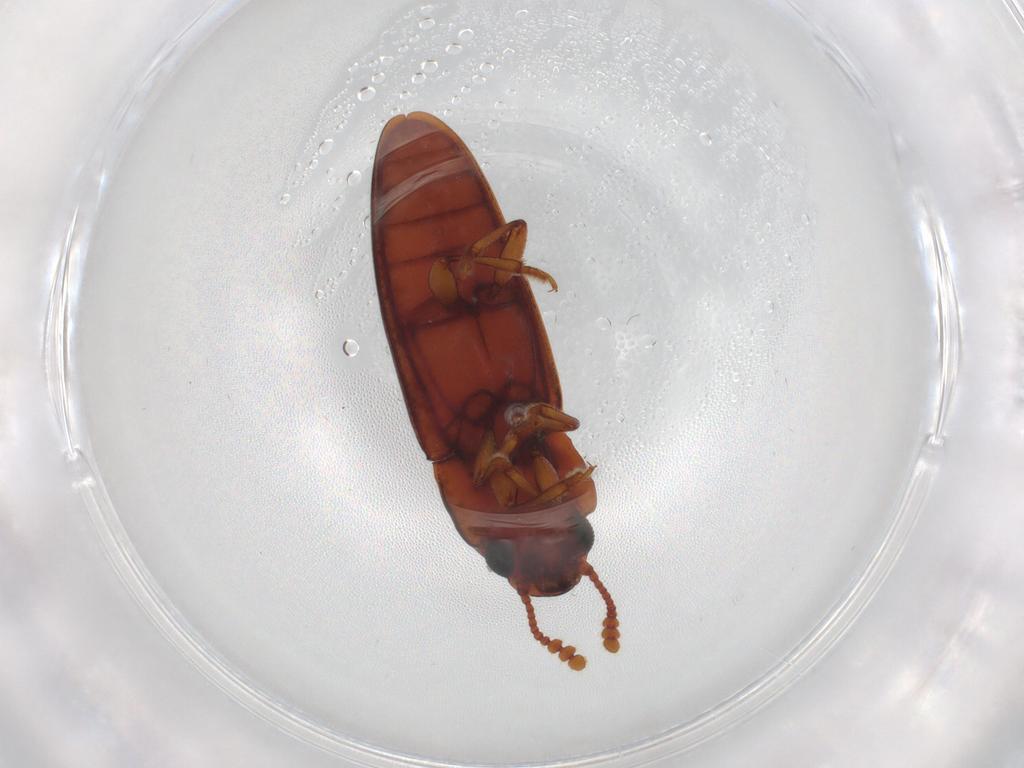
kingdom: Animalia
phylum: Arthropoda
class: Insecta
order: Coleoptera
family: Erotylidae
